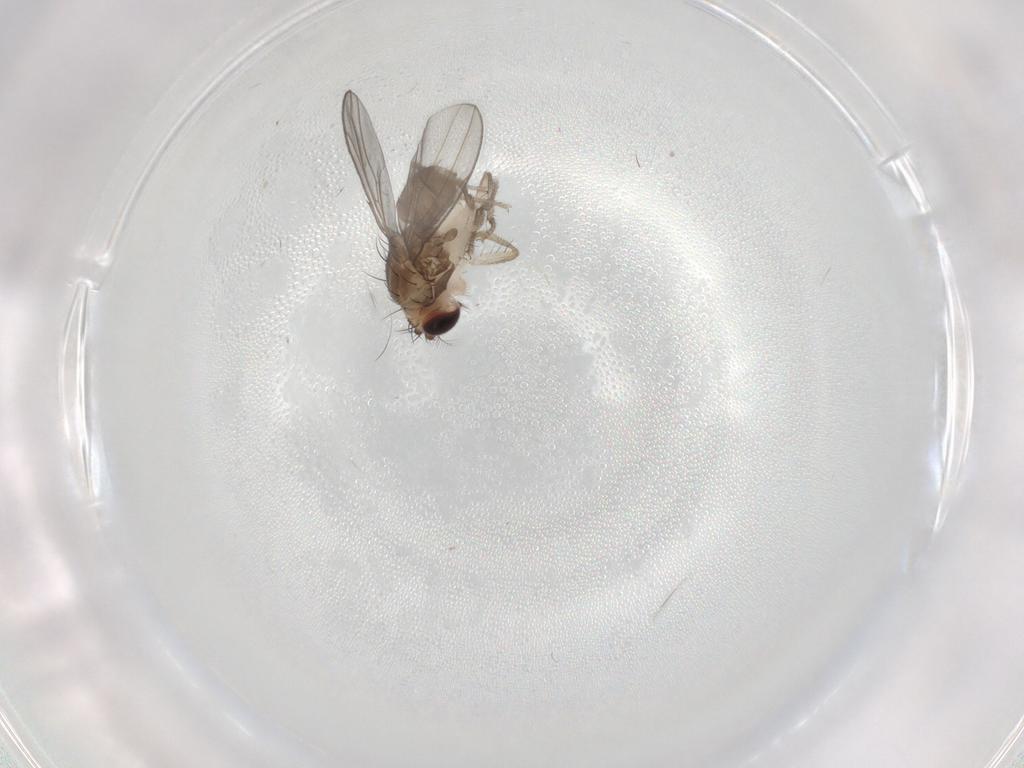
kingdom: Animalia
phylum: Arthropoda
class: Insecta
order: Diptera
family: Drosophilidae
